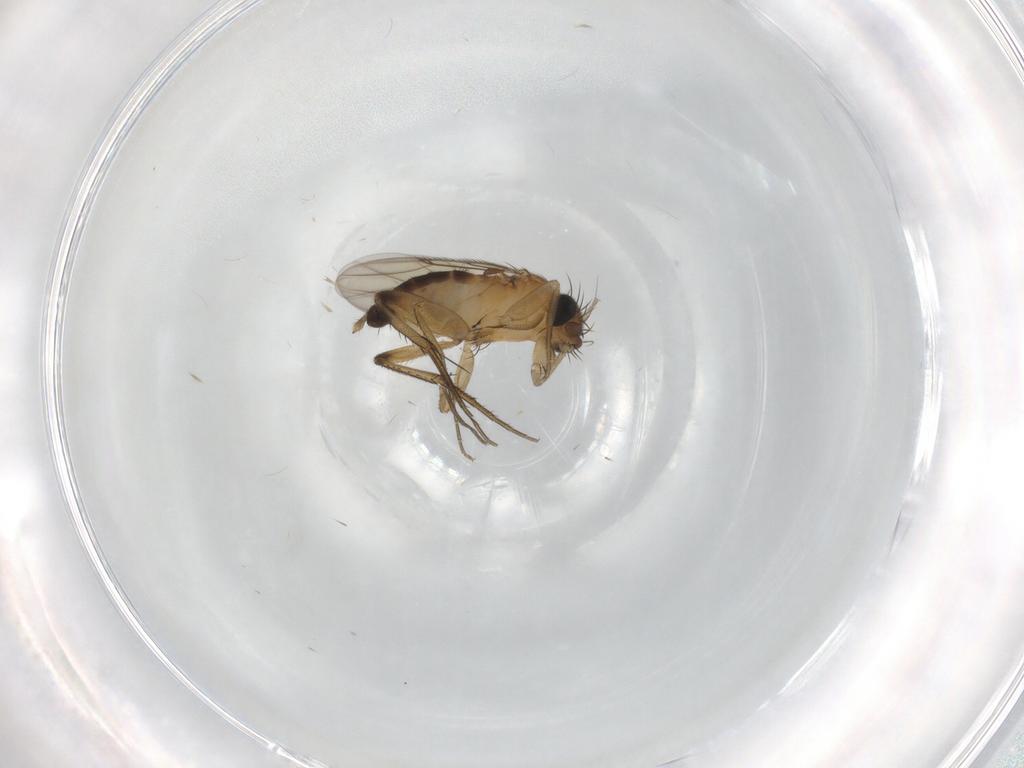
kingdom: Animalia
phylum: Arthropoda
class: Insecta
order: Diptera
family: Phoridae
